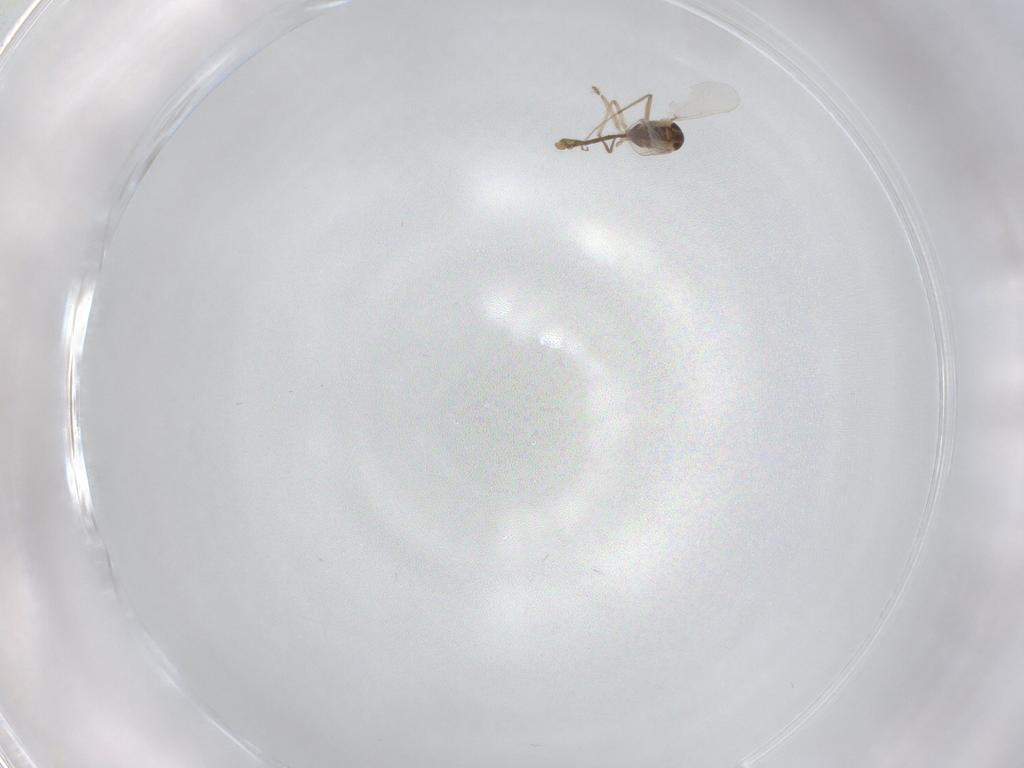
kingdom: Animalia
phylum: Arthropoda
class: Insecta
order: Diptera
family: Chironomidae
